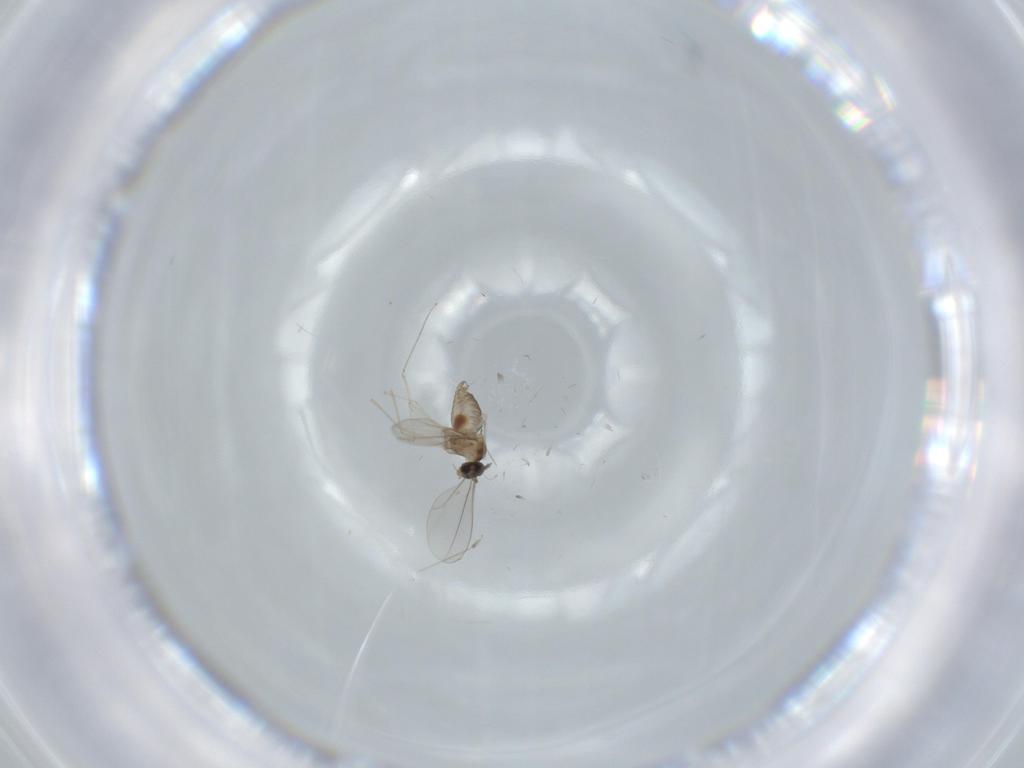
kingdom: Animalia
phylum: Arthropoda
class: Insecta
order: Diptera
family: Cecidomyiidae
